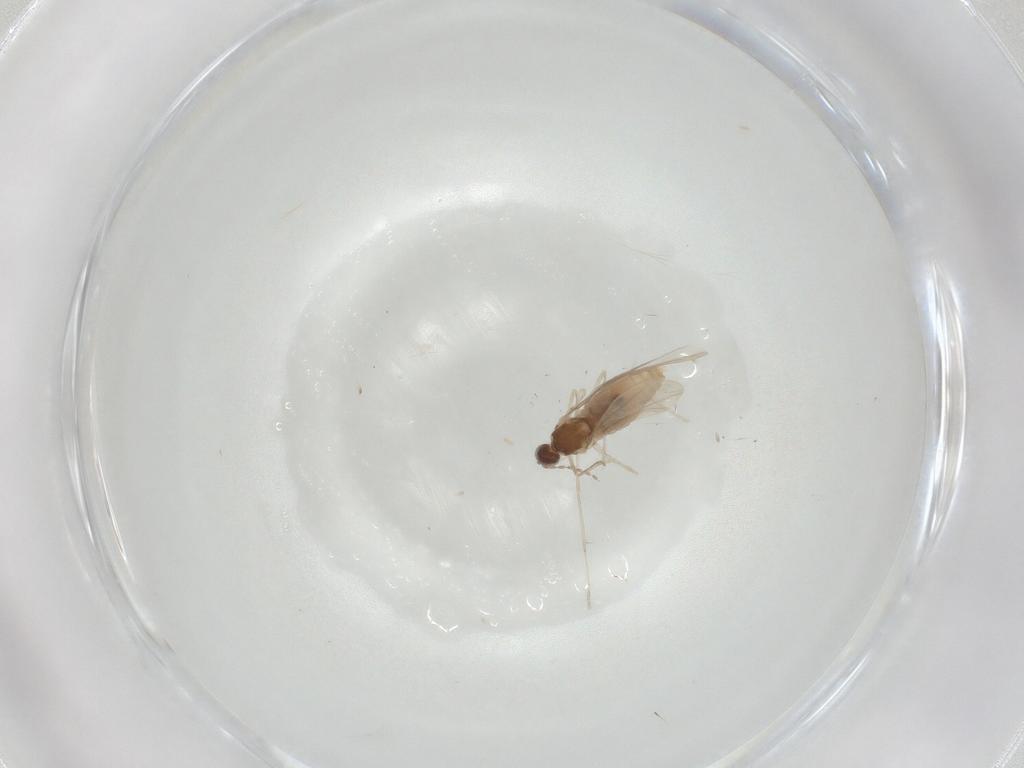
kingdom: Animalia
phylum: Arthropoda
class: Insecta
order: Diptera
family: Cecidomyiidae
